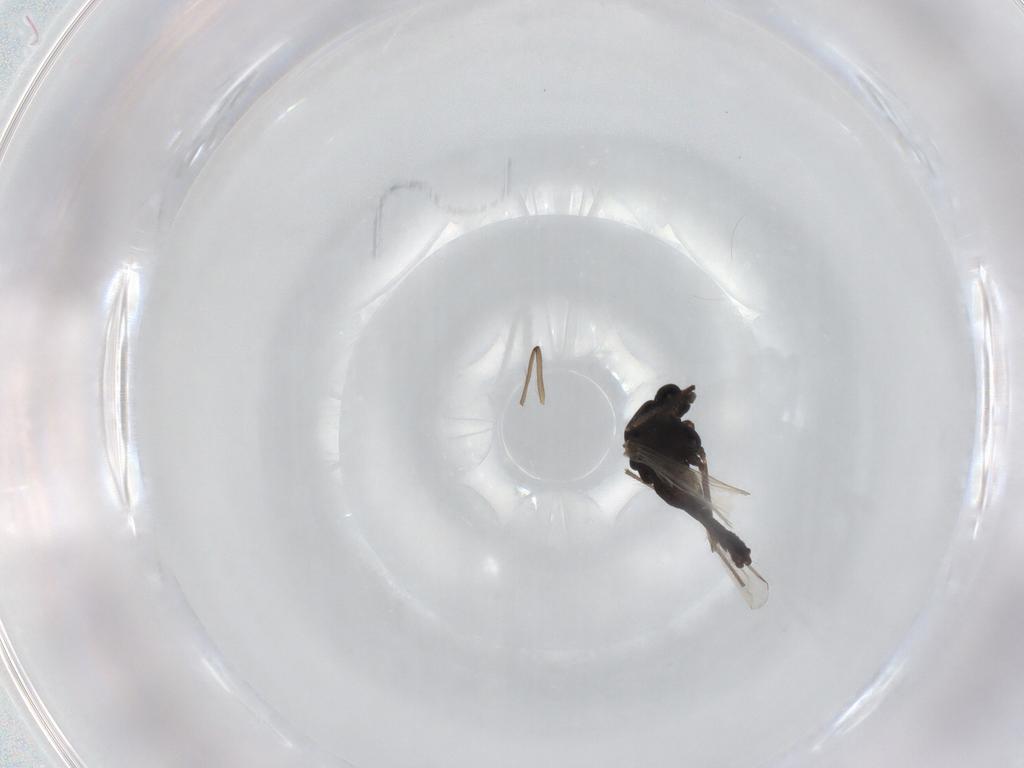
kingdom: Animalia
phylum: Arthropoda
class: Insecta
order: Diptera
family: Chironomidae
